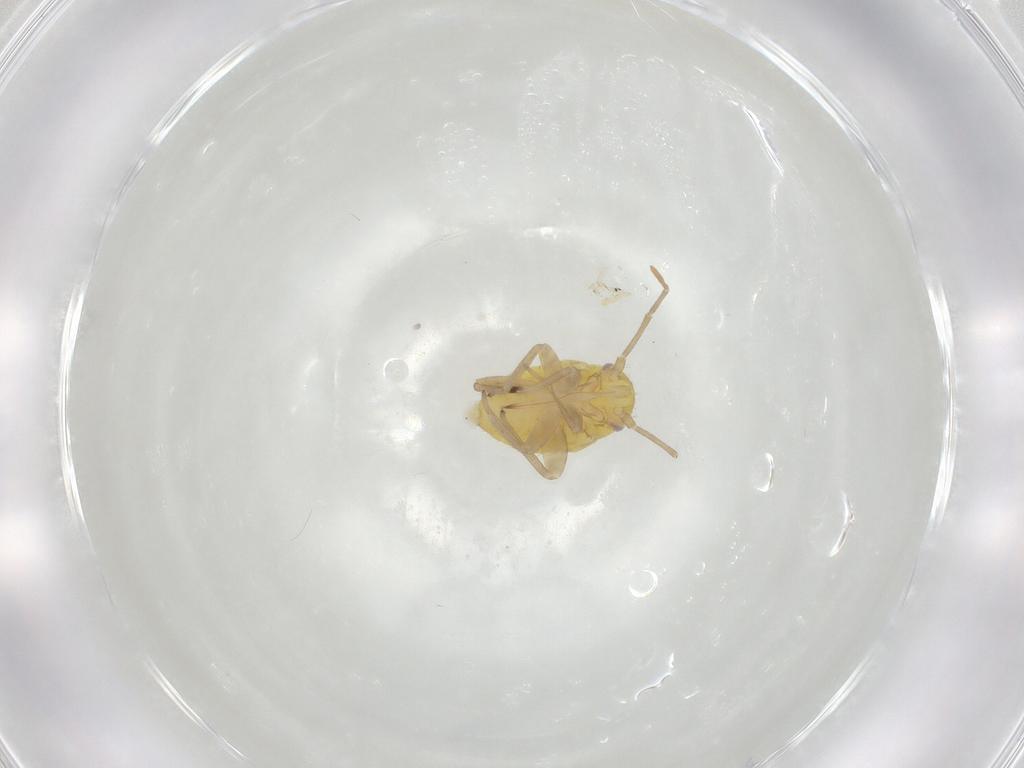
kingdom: Animalia
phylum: Arthropoda
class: Insecta
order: Hemiptera
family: Miridae
